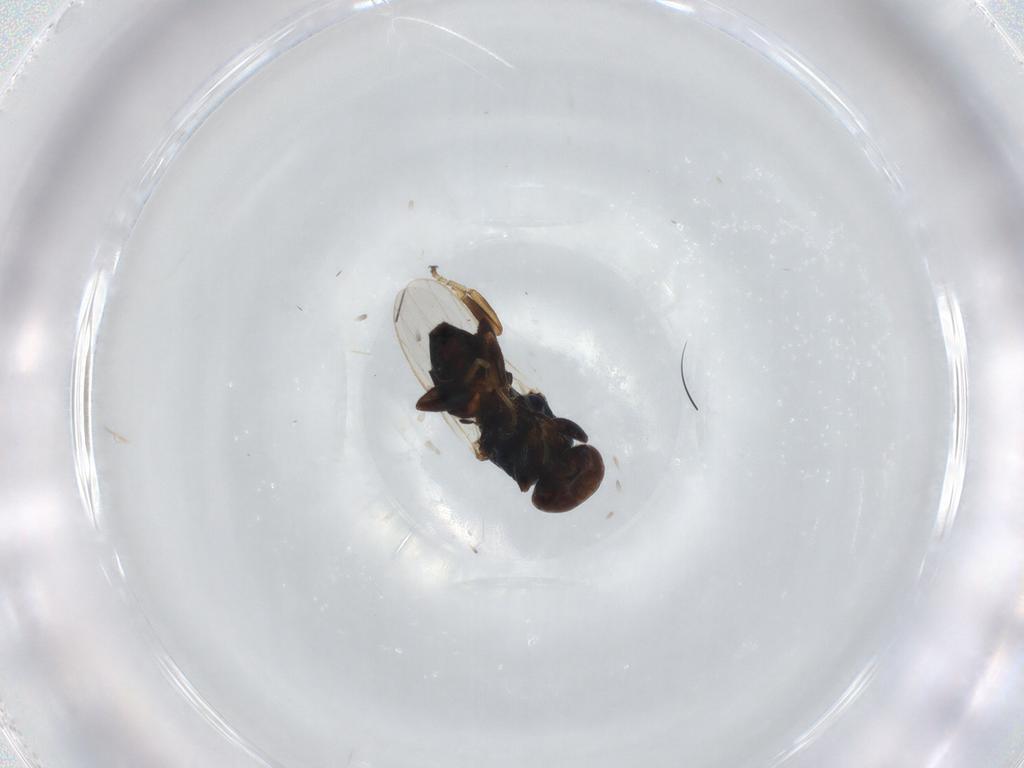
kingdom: Animalia
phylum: Arthropoda
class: Insecta
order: Diptera
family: Chloropidae
